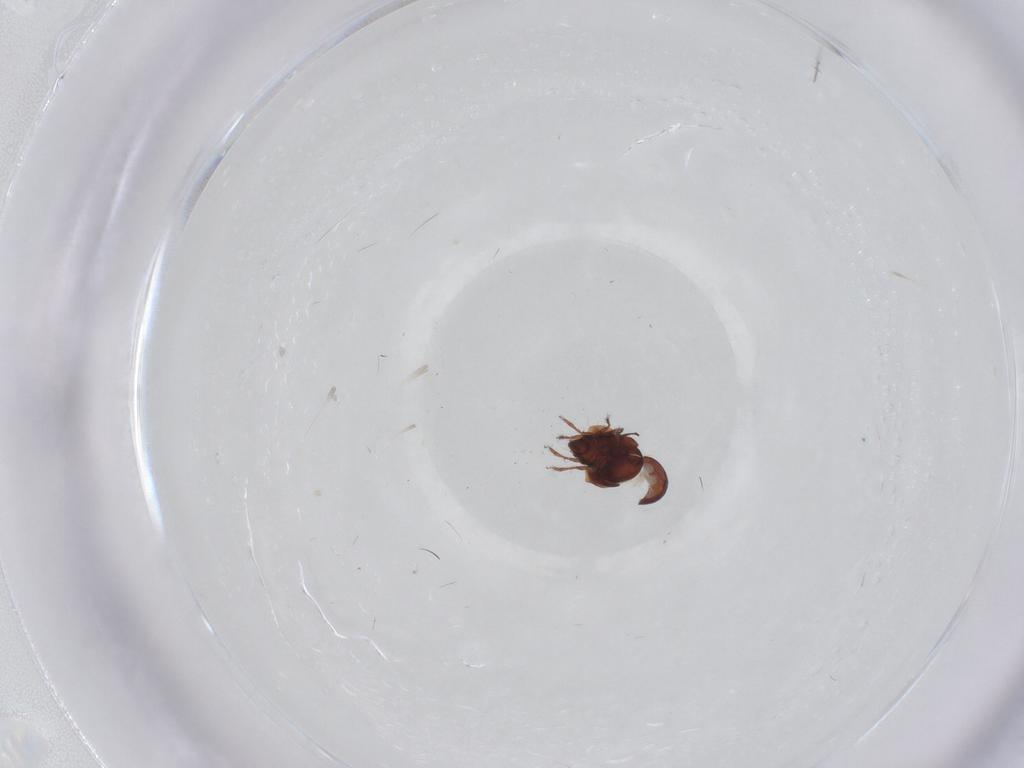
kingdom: Animalia
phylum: Arthropoda
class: Arachnida
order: Sarcoptiformes
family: Ceratozetidae
